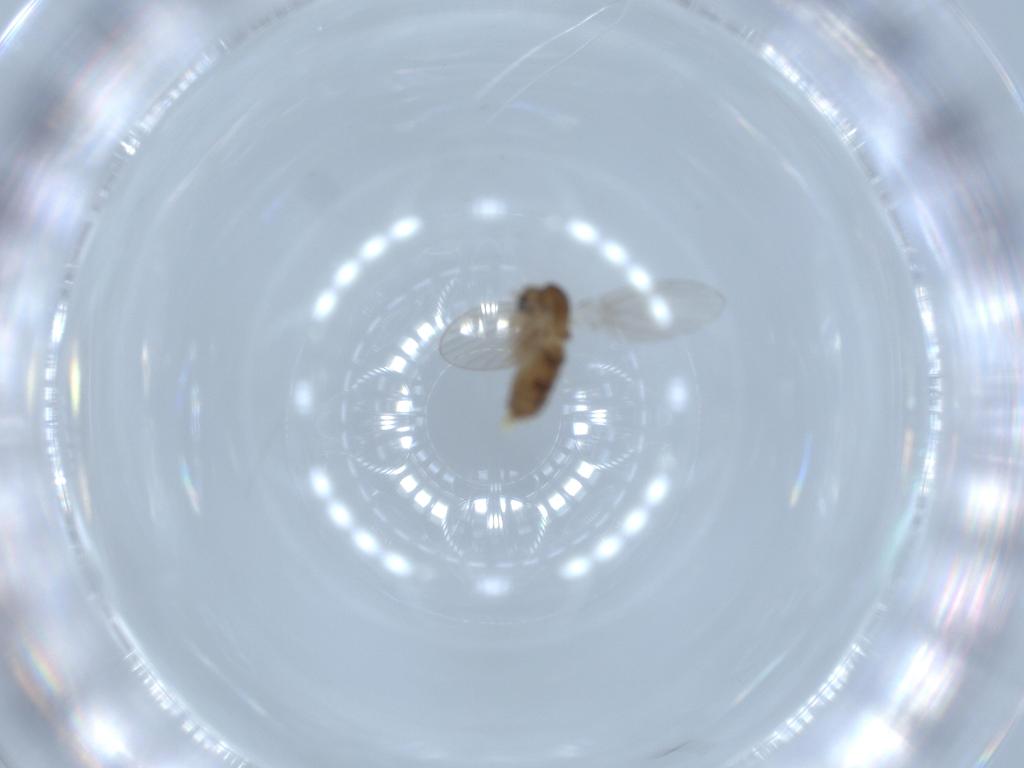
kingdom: Animalia
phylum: Arthropoda
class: Insecta
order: Diptera
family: Psychodidae
